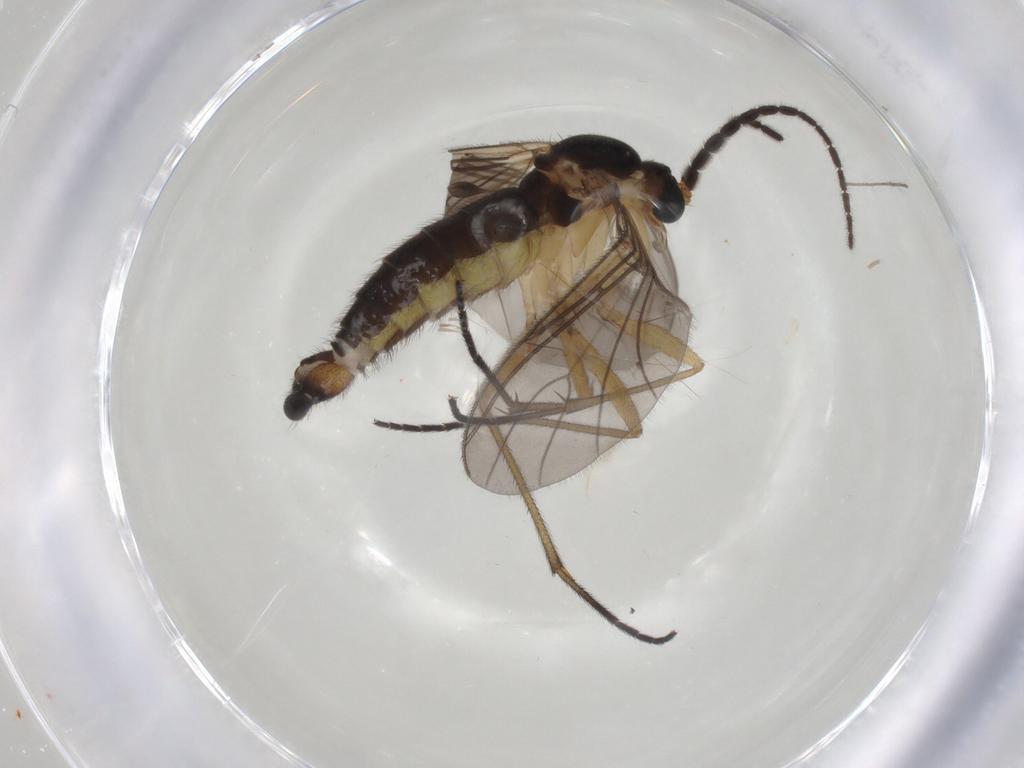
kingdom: Animalia
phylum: Arthropoda
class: Insecta
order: Diptera
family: Sciaridae
